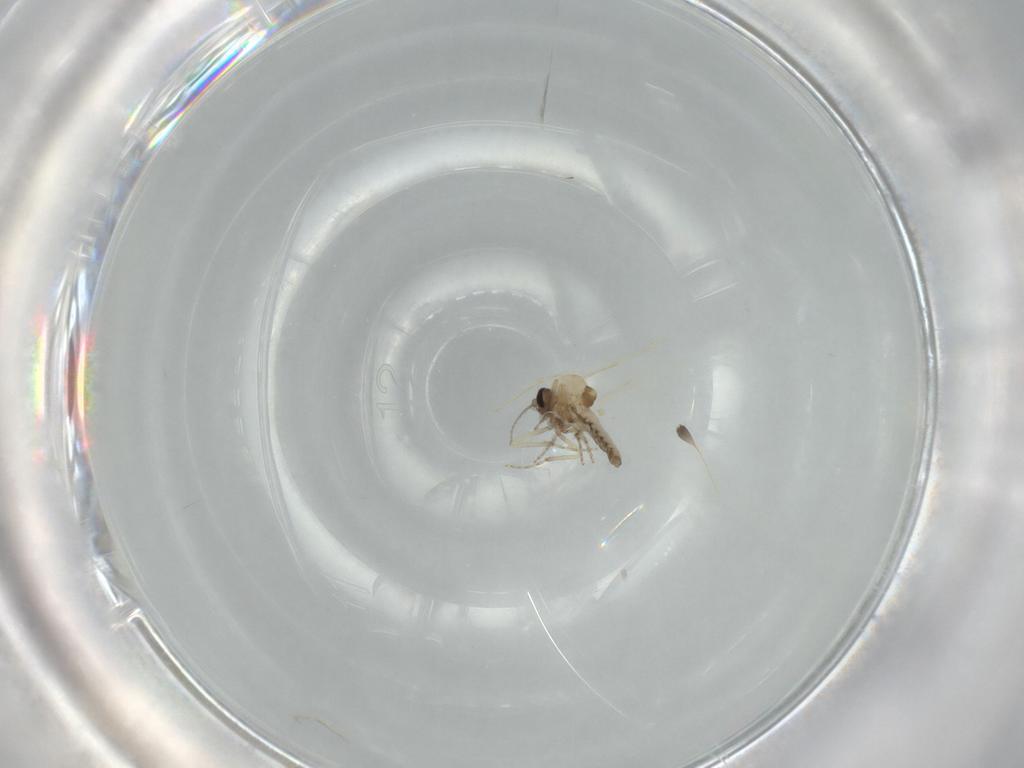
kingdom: Animalia
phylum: Arthropoda
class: Insecta
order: Diptera
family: Ceratopogonidae
